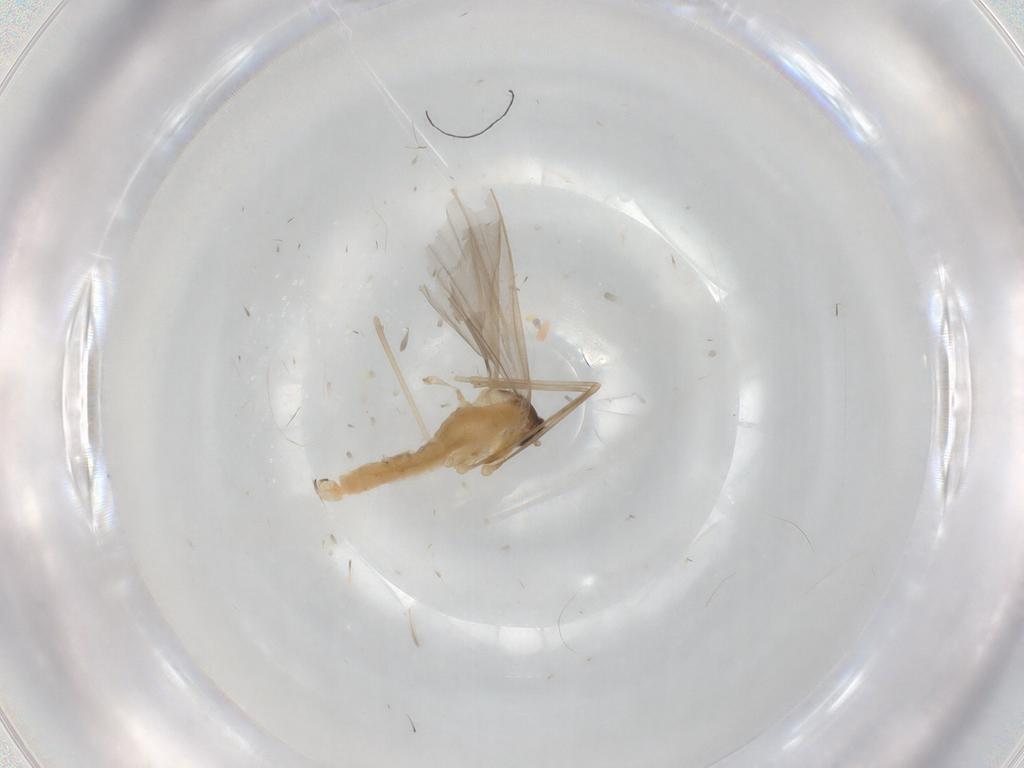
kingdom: Animalia
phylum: Arthropoda
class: Insecta
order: Diptera
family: Cecidomyiidae
